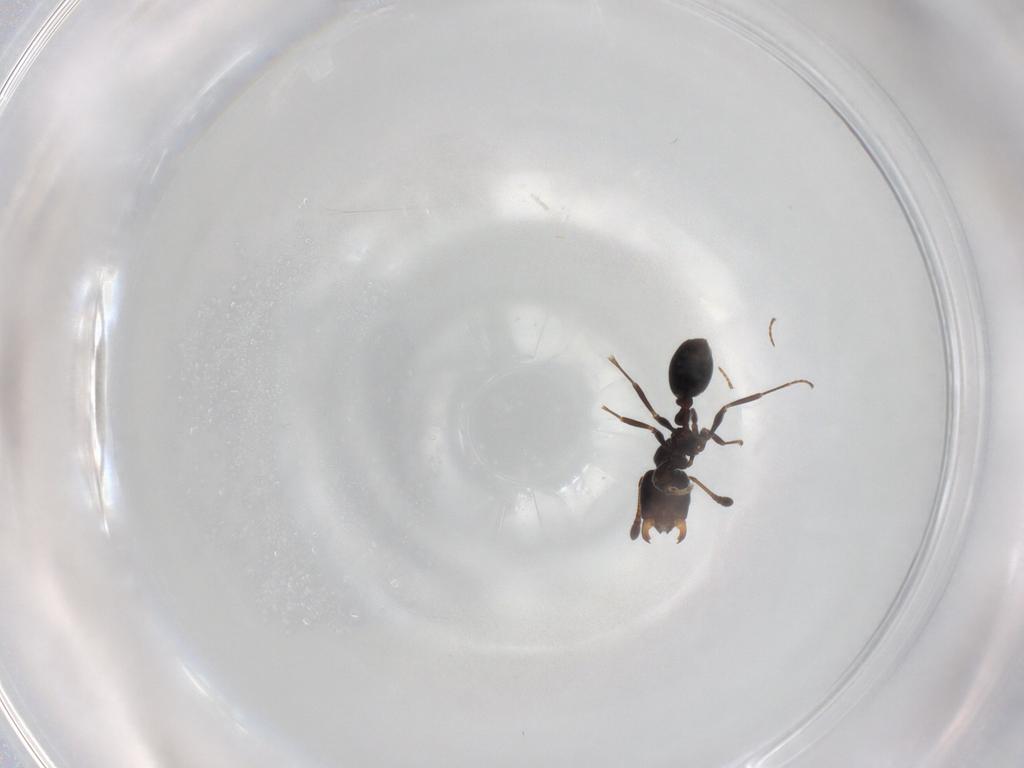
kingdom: Animalia
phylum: Arthropoda
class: Insecta
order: Hymenoptera
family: Formicidae
